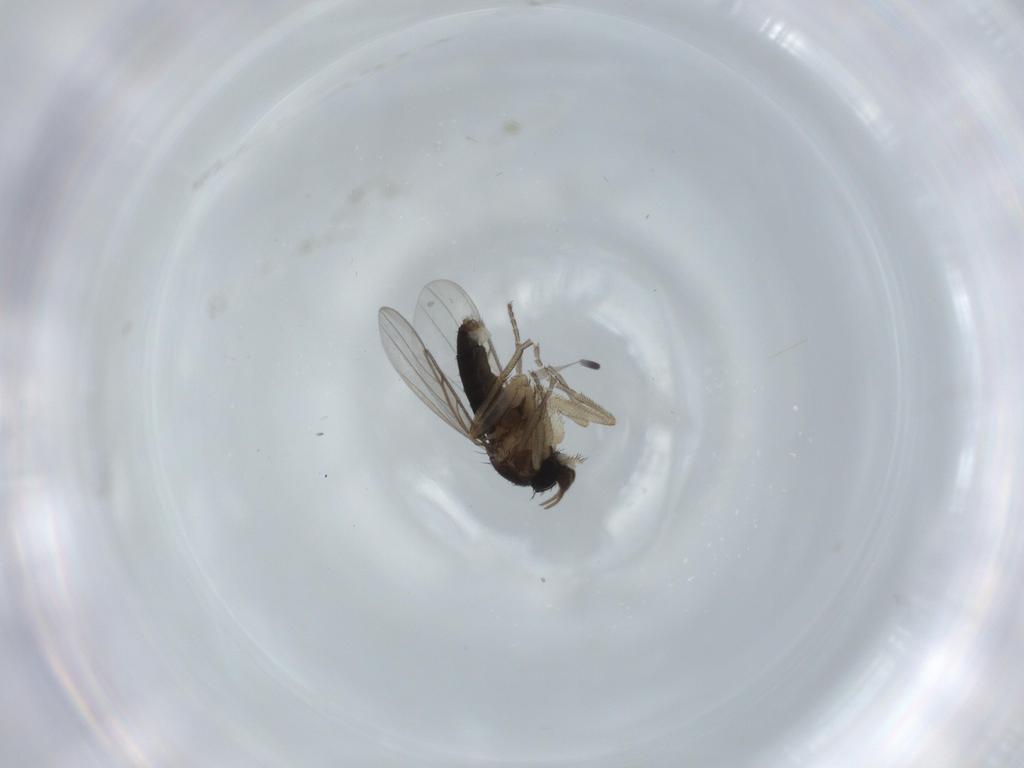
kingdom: Animalia
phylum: Arthropoda
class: Insecta
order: Diptera
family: Phoridae
